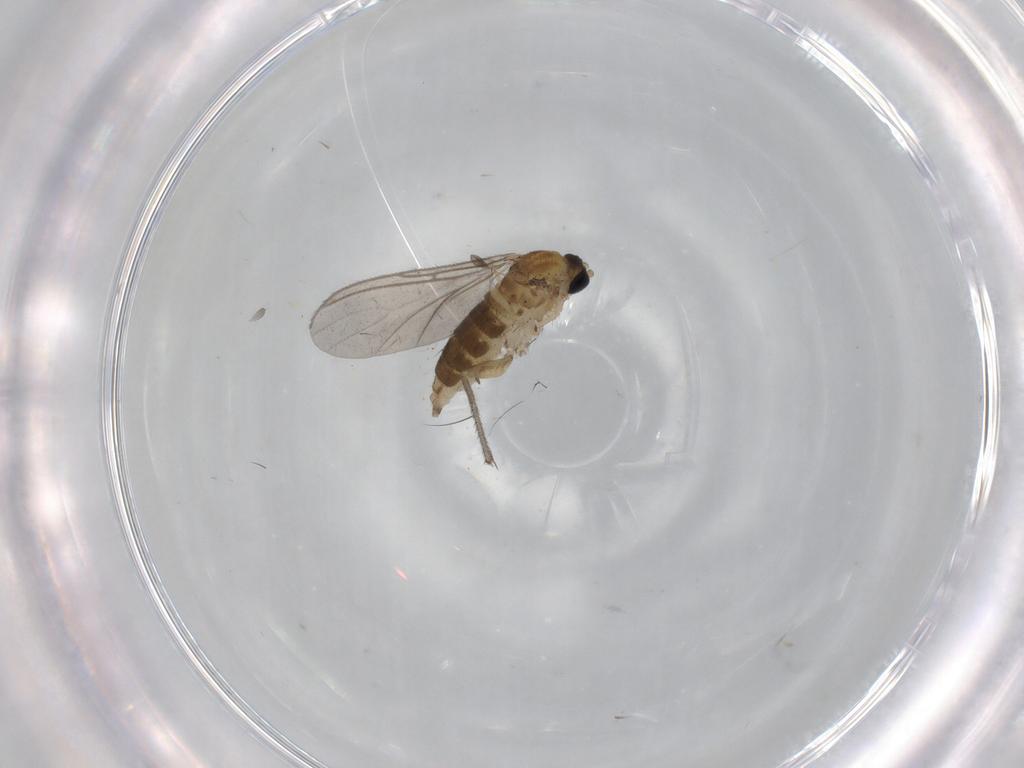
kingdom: Animalia
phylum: Arthropoda
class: Insecta
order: Diptera
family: Sciaridae
